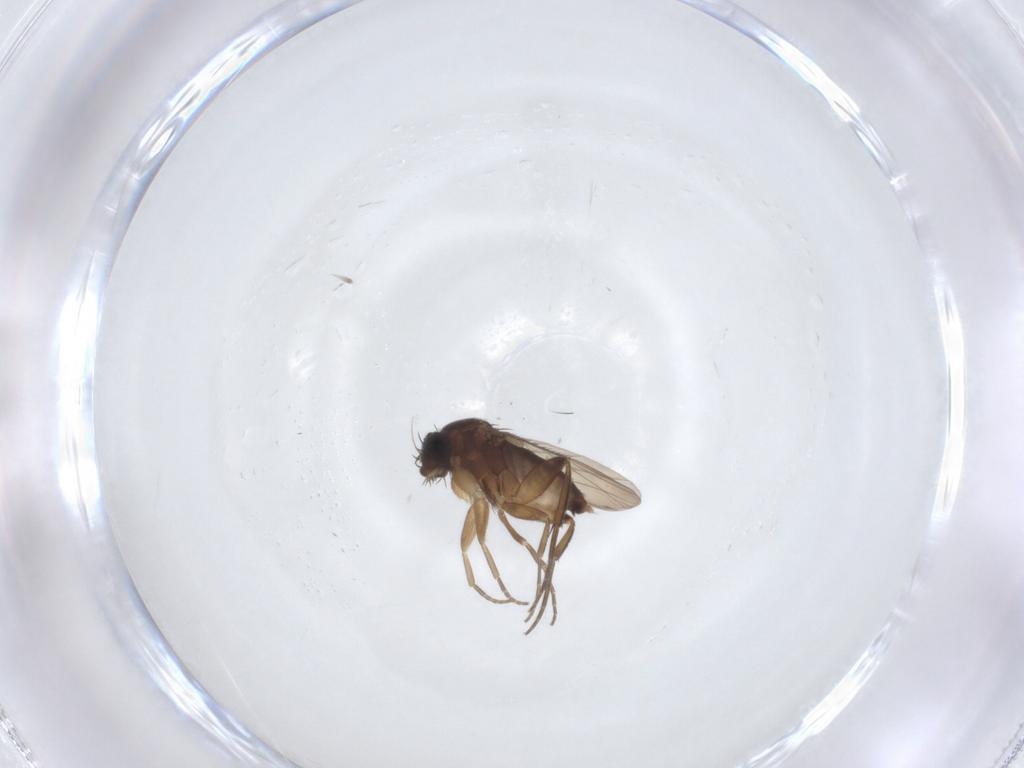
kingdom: Animalia
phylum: Arthropoda
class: Insecta
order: Diptera
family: Phoridae
